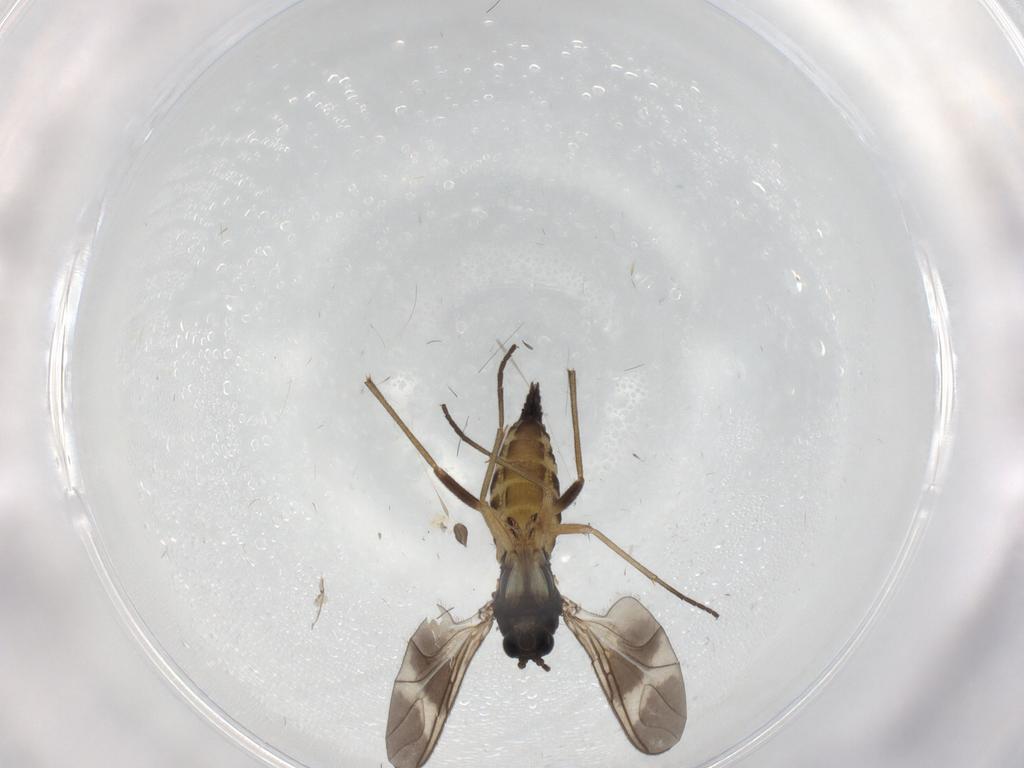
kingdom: Animalia
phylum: Arthropoda
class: Insecta
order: Diptera
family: Sciaridae
